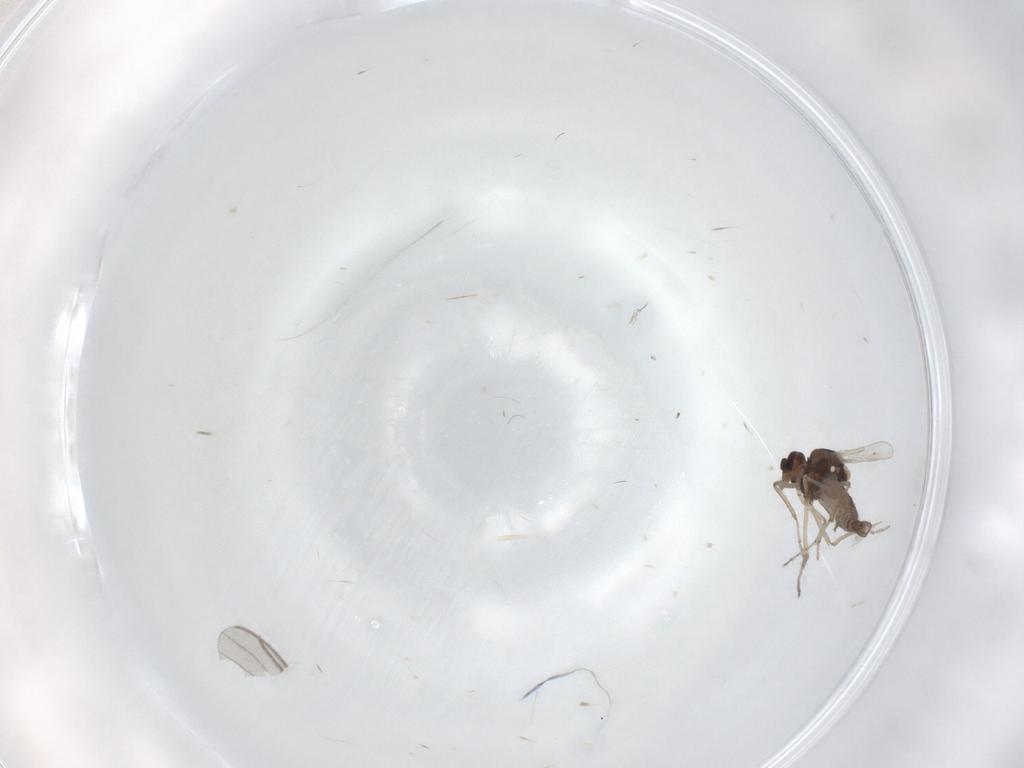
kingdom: Animalia
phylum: Arthropoda
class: Insecta
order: Diptera
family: Ceratopogonidae
